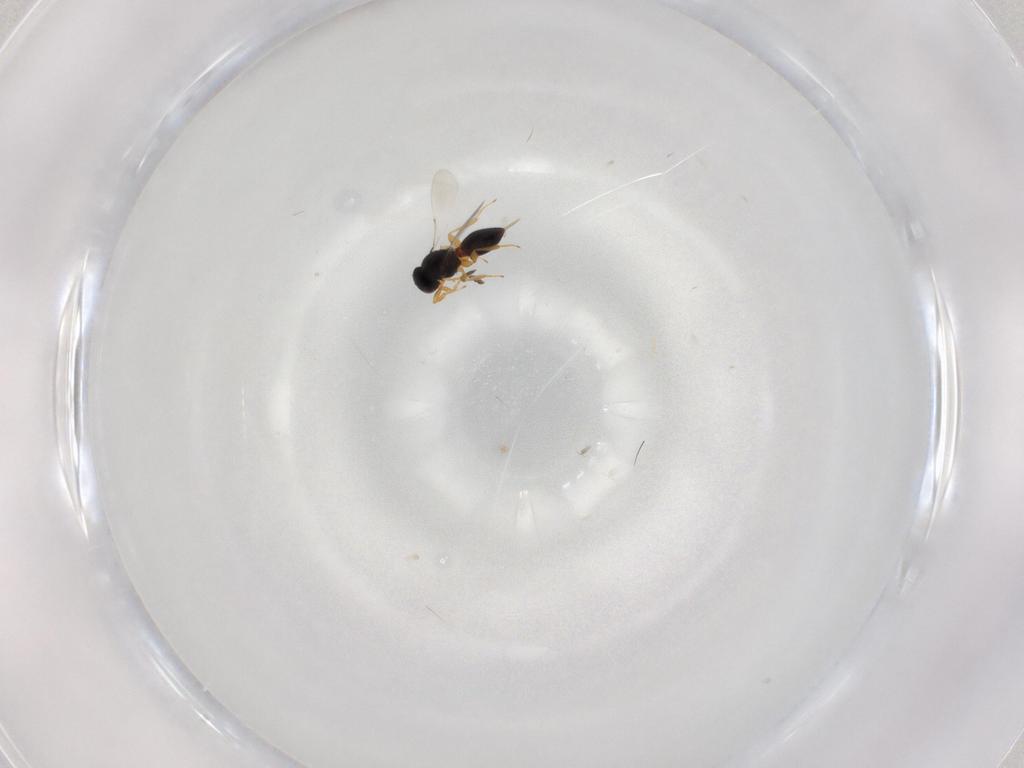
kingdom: Animalia
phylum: Arthropoda
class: Insecta
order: Hymenoptera
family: Platygastridae
